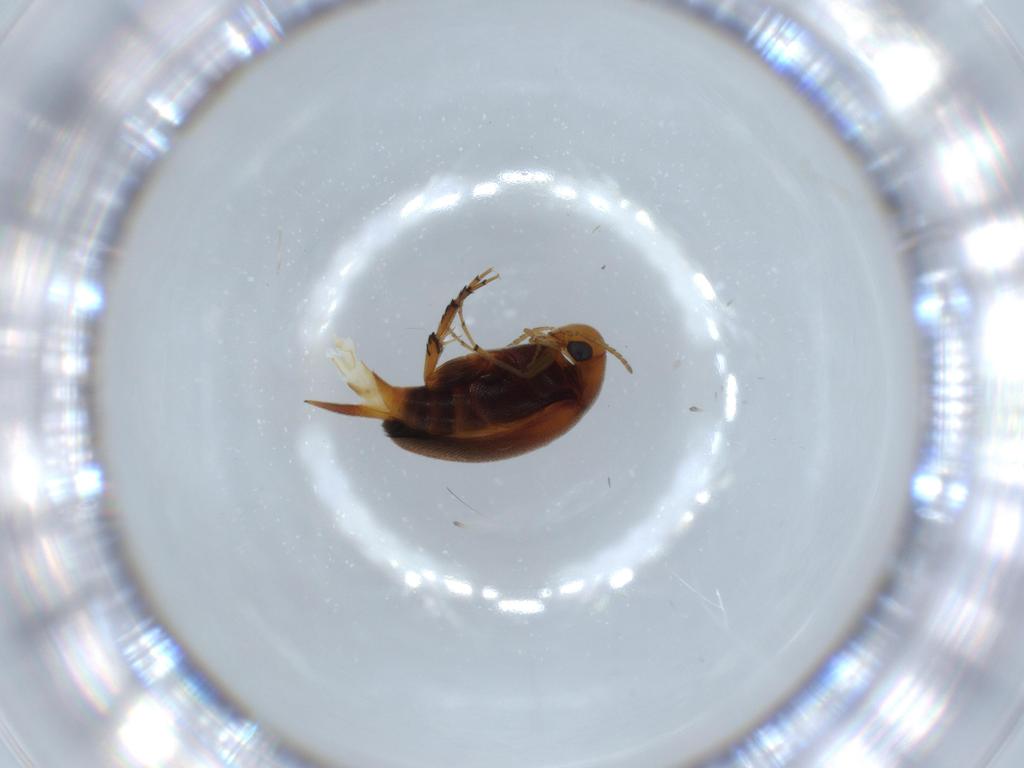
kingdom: Animalia
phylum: Arthropoda
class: Insecta
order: Coleoptera
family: Mordellidae
